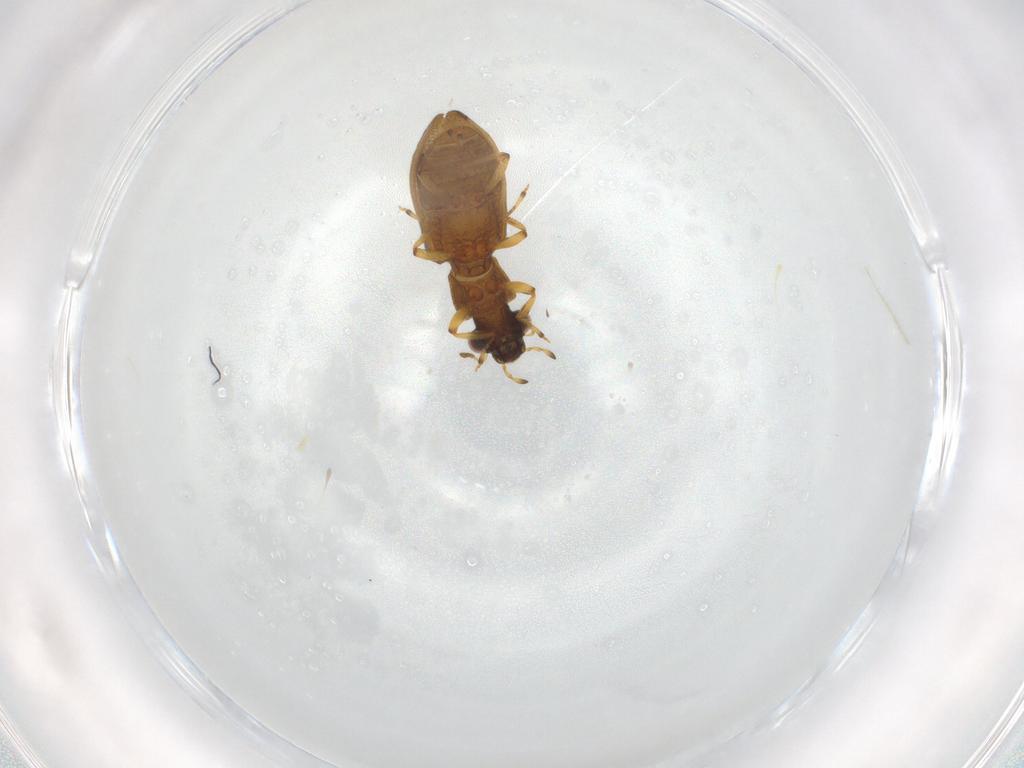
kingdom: Animalia
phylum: Arthropoda
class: Insecta
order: Coleoptera
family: Hydrophilidae
